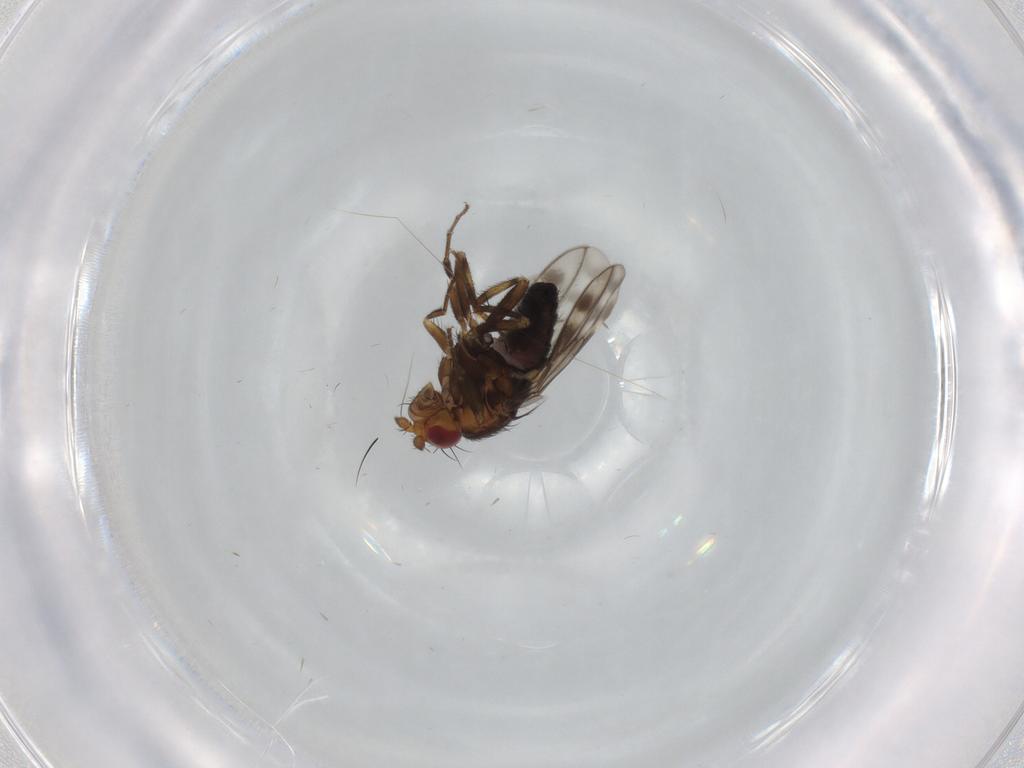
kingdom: Animalia
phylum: Arthropoda
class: Insecta
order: Diptera
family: Sphaeroceridae
